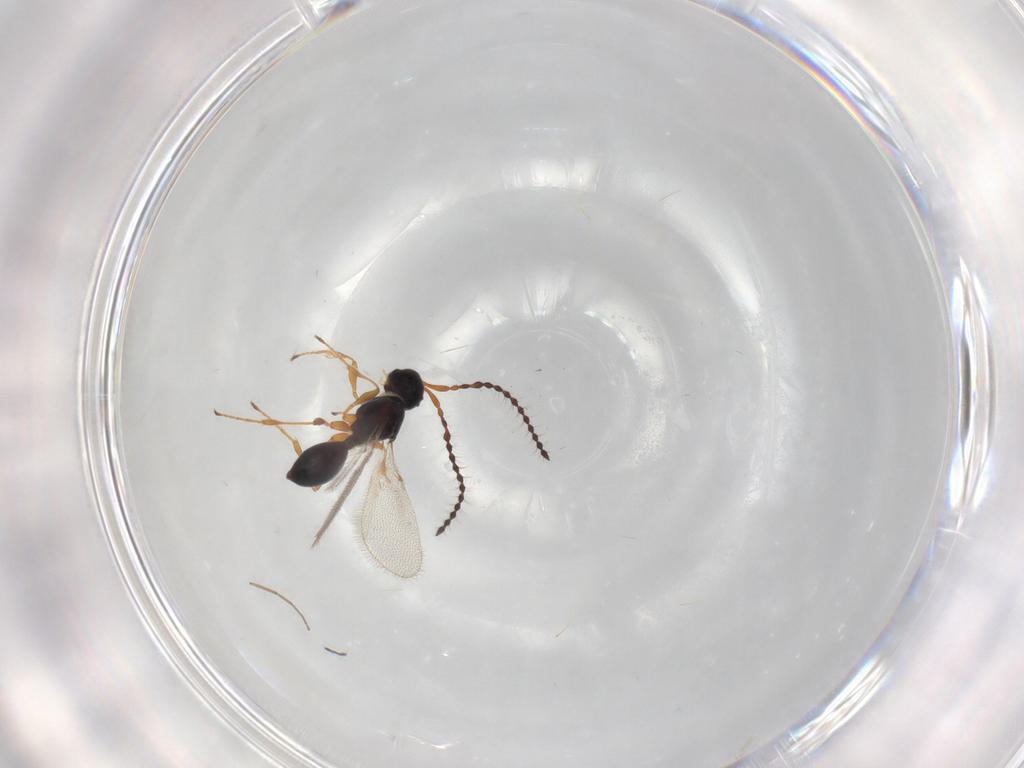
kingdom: Animalia
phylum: Arthropoda
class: Insecta
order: Hymenoptera
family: Diapriidae
